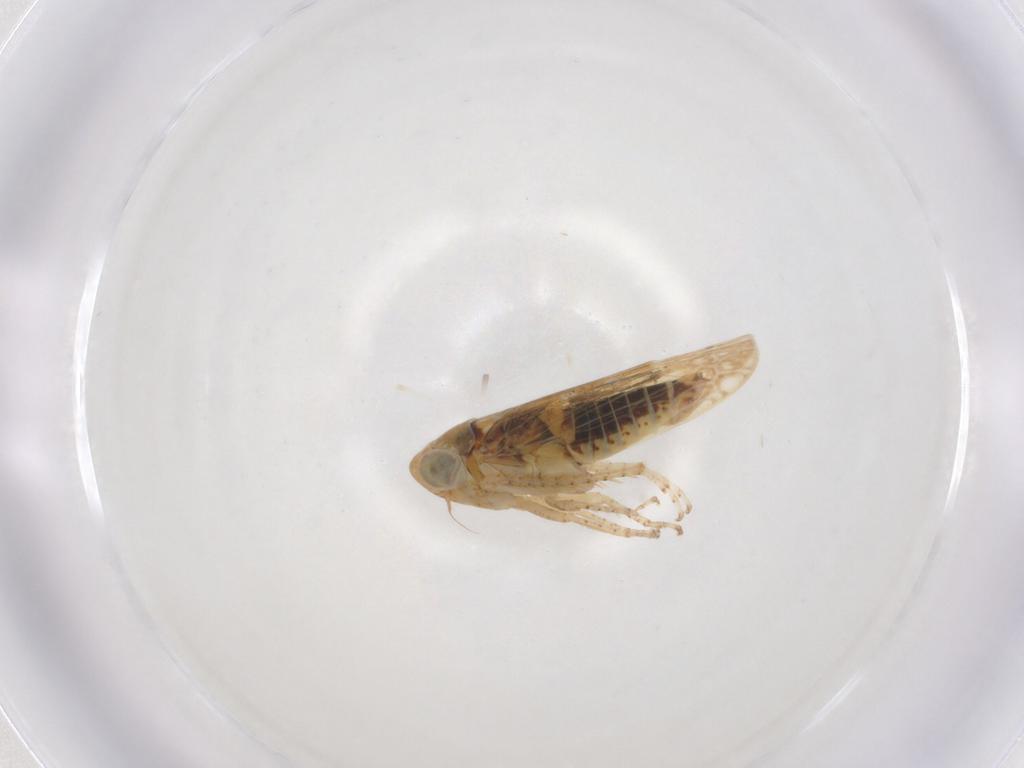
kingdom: Animalia
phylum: Arthropoda
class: Insecta
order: Hemiptera
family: Cicadellidae
